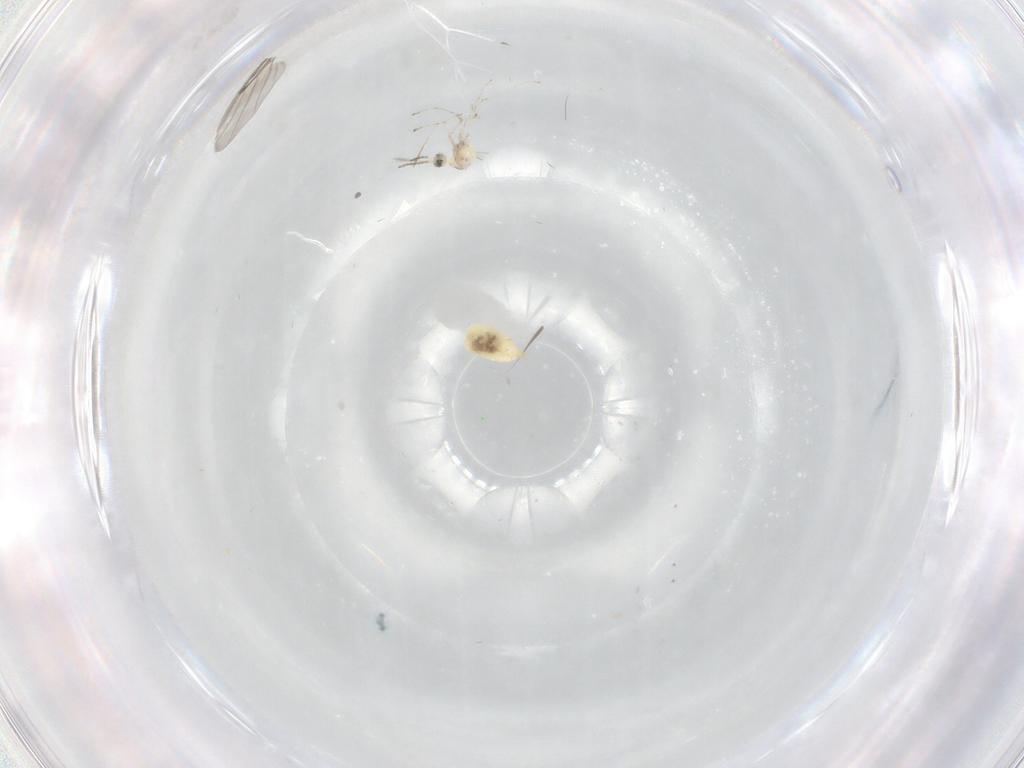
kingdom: Animalia
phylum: Arthropoda
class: Insecta
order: Diptera
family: Cecidomyiidae
